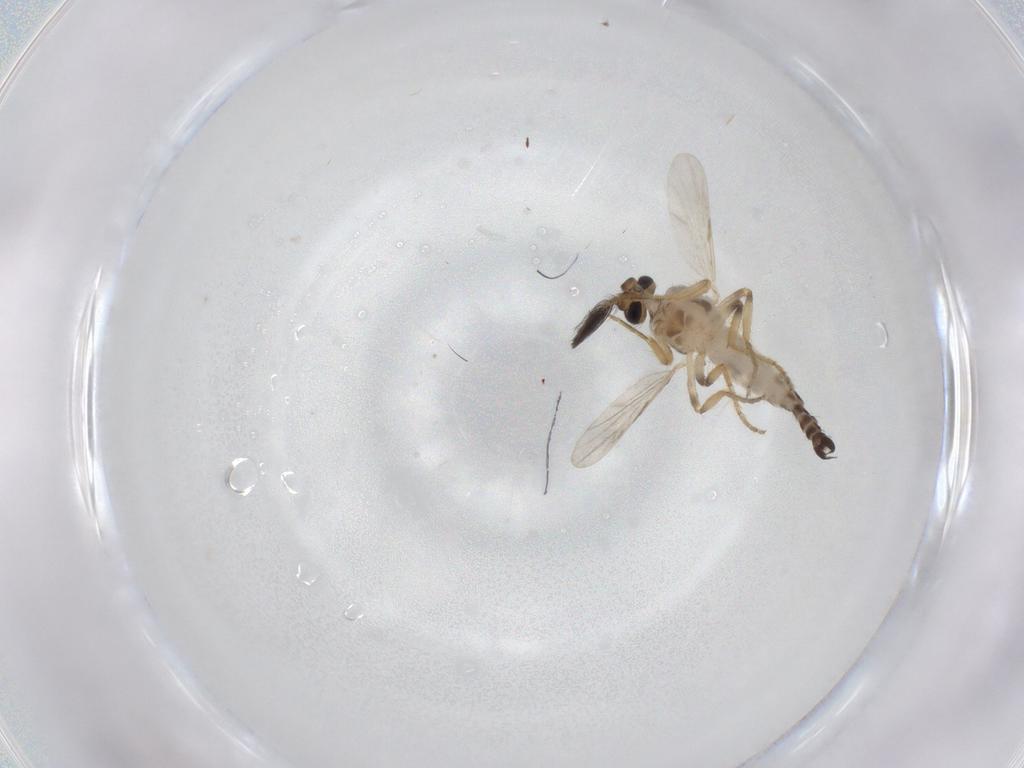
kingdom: Animalia
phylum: Arthropoda
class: Insecta
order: Diptera
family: Ceratopogonidae
